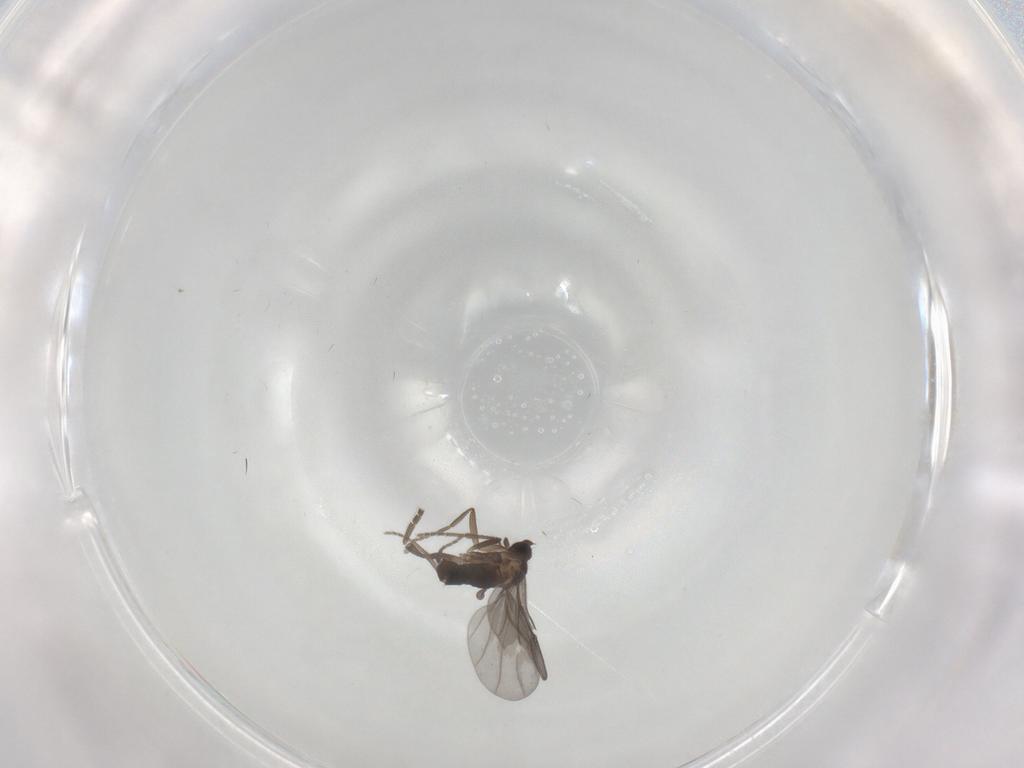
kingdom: Animalia
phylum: Arthropoda
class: Insecta
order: Diptera
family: Phoridae
